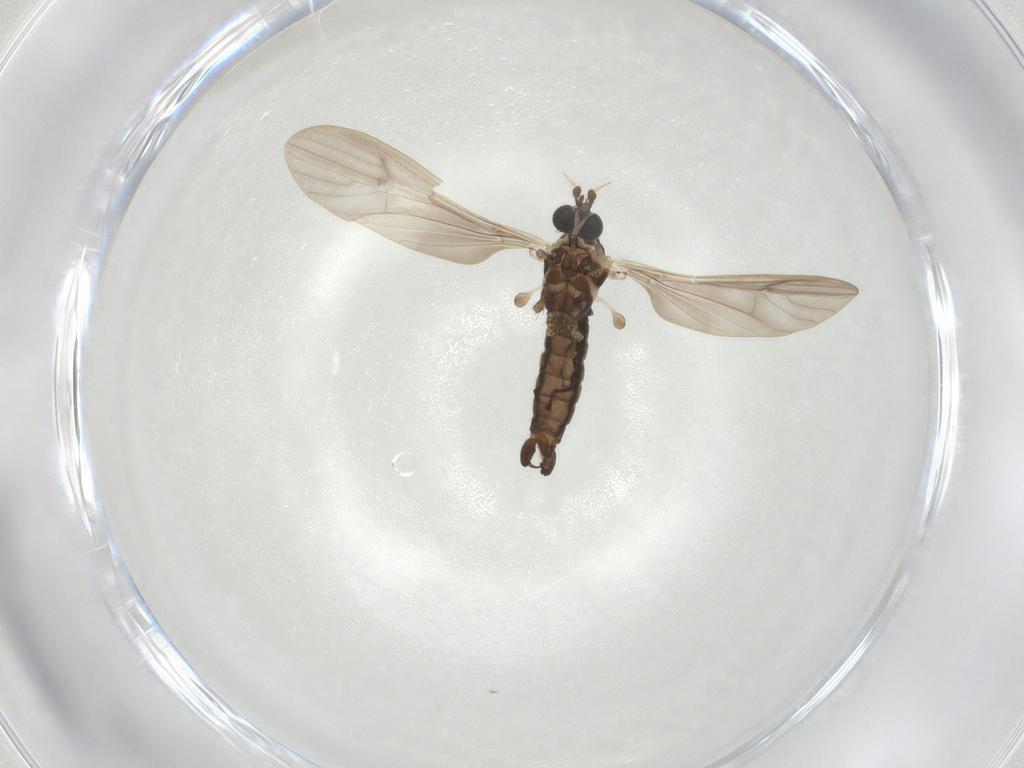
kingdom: Animalia
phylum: Arthropoda
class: Insecta
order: Diptera
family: Limoniidae
